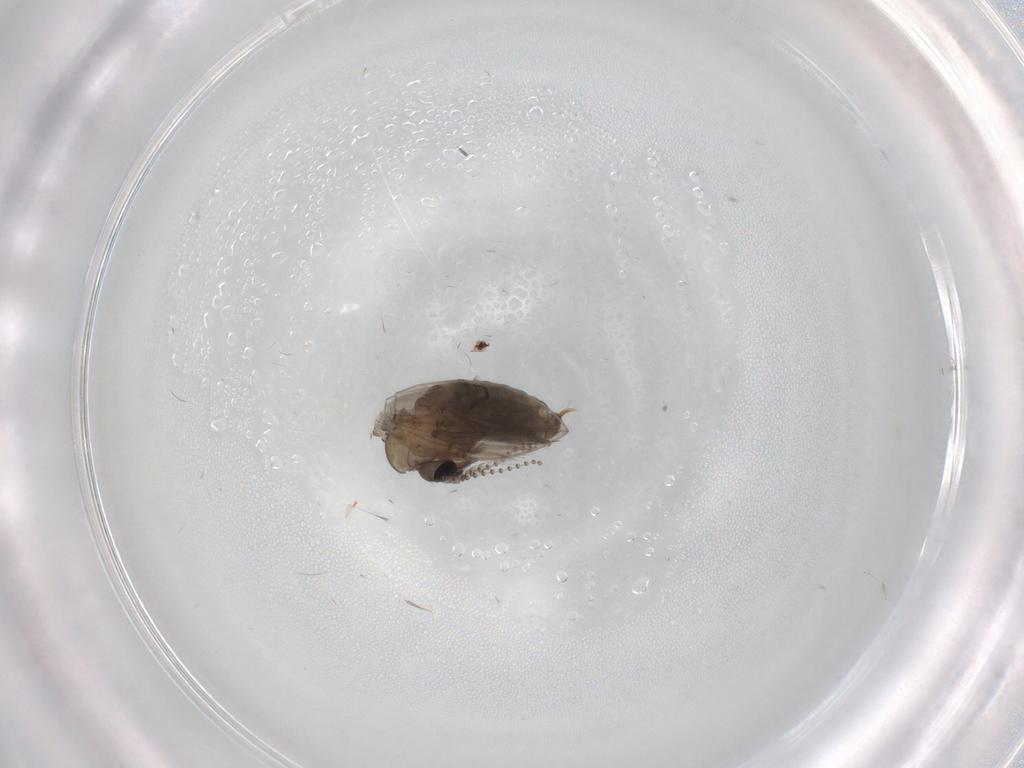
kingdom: Animalia
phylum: Arthropoda
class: Insecta
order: Diptera
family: Psychodidae
